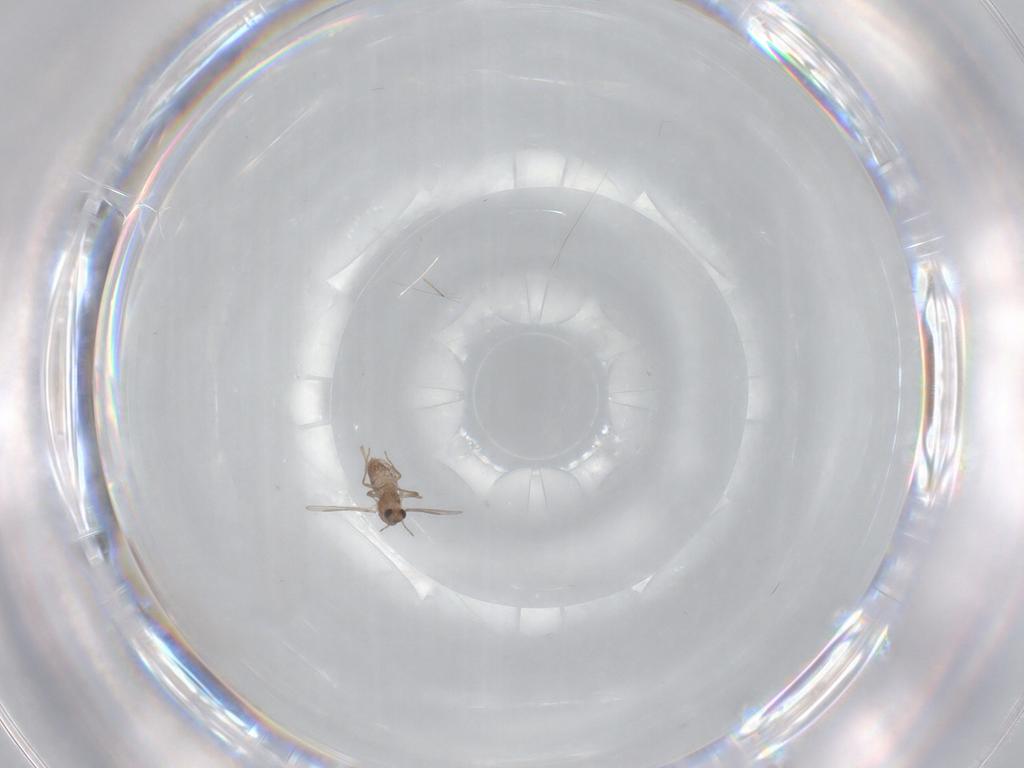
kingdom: Animalia
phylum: Arthropoda
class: Insecta
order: Diptera
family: Chironomidae
